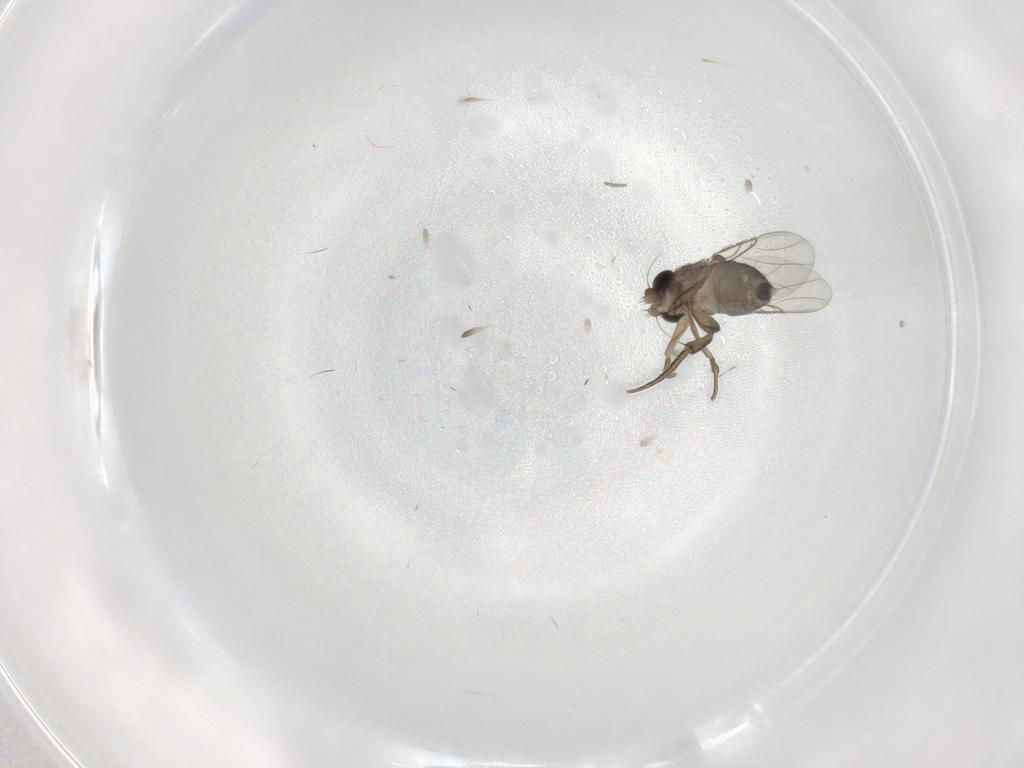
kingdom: Animalia
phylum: Arthropoda
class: Insecta
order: Diptera
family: Phoridae
